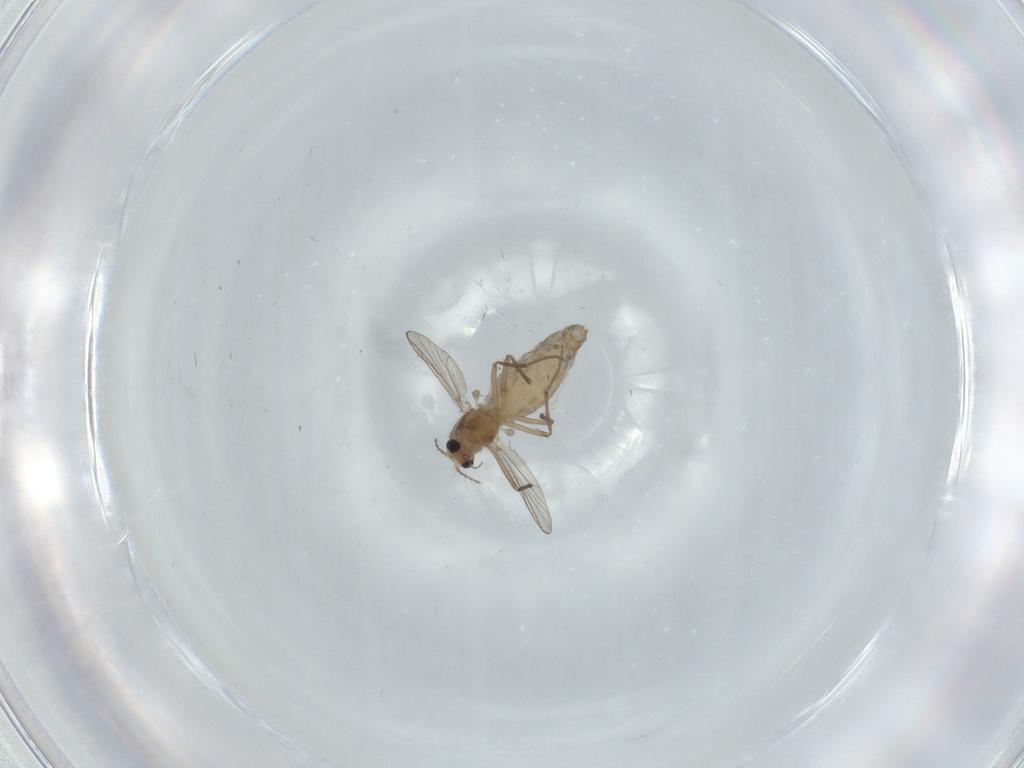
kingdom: Animalia
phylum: Arthropoda
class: Insecta
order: Diptera
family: Chironomidae
